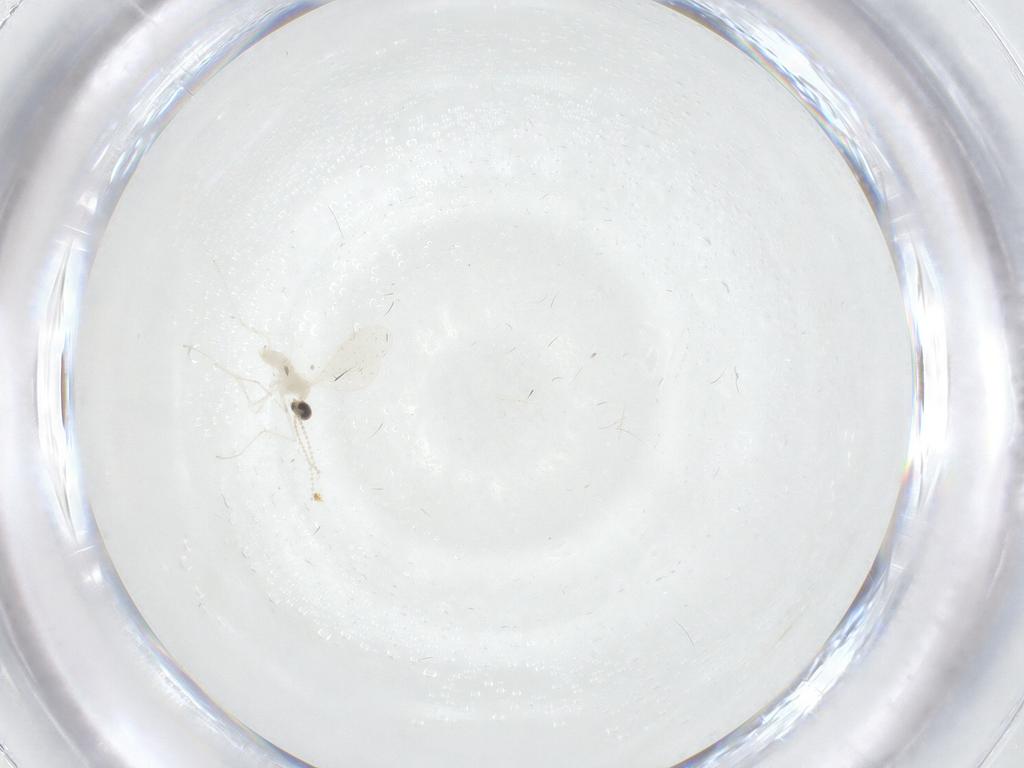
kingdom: Animalia
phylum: Arthropoda
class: Insecta
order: Diptera
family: Cecidomyiidae
